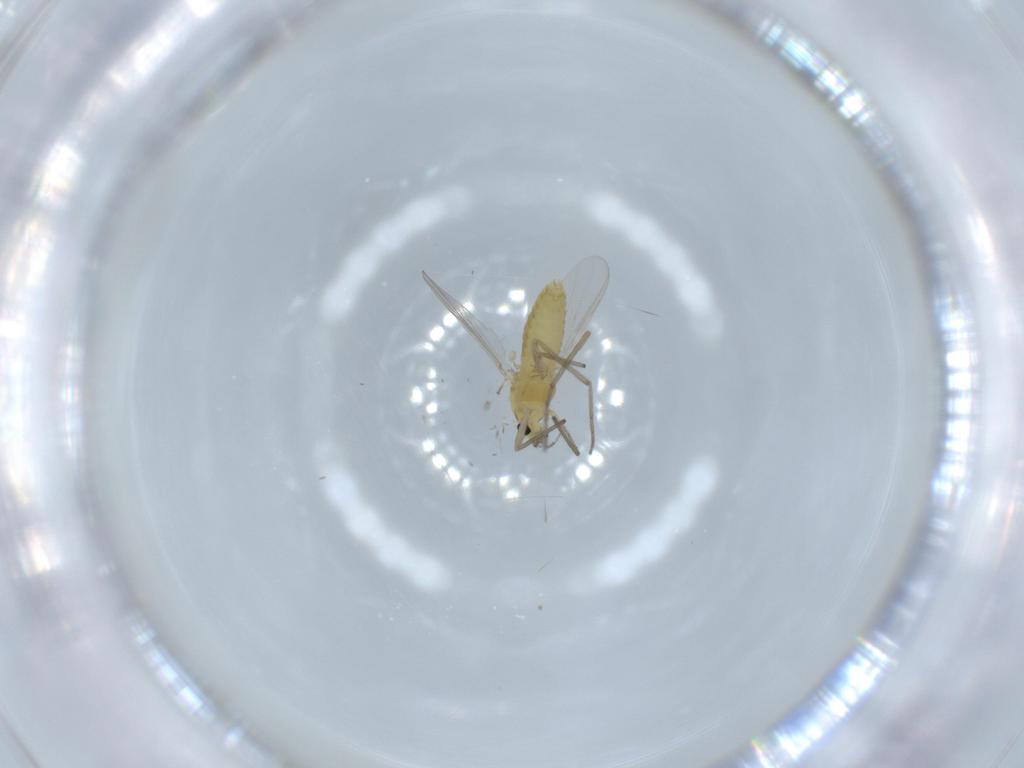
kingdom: Animalia
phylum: Arthropoda
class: Insecta
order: Diptera
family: Chironomidae
